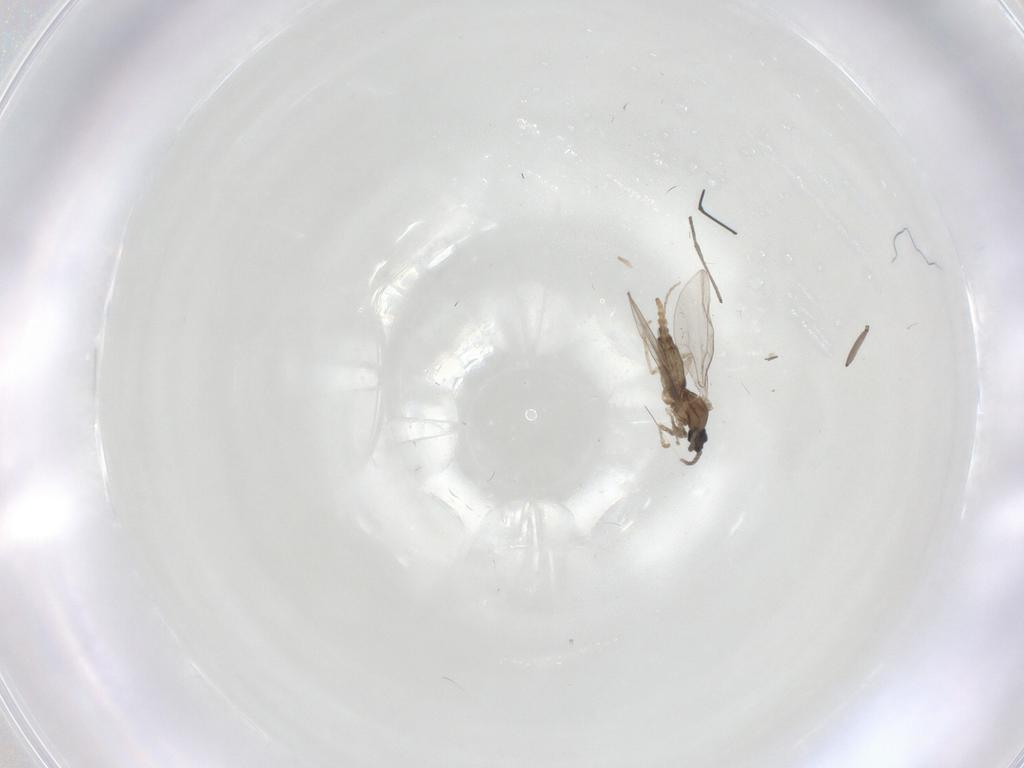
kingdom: Animalia
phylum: Arthropoda
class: Insecta
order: Diptera
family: Cecidomyiidae
